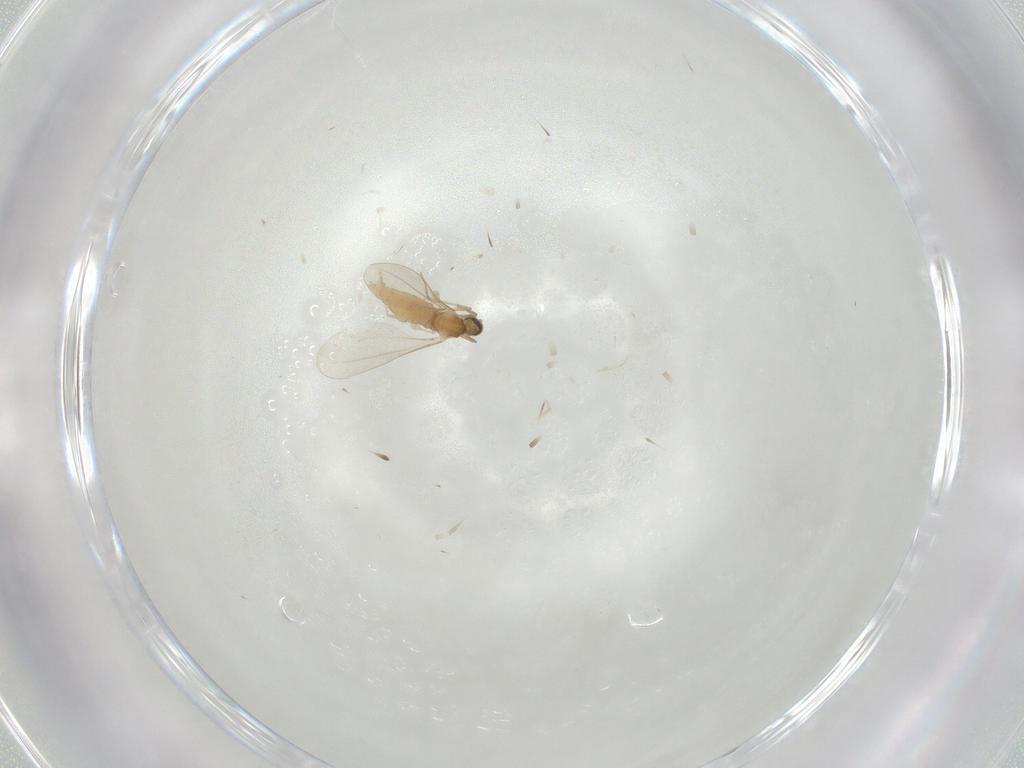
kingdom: Animalia
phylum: Arthropoda
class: Insecta
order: Diptera
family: Cecidomyiidae
